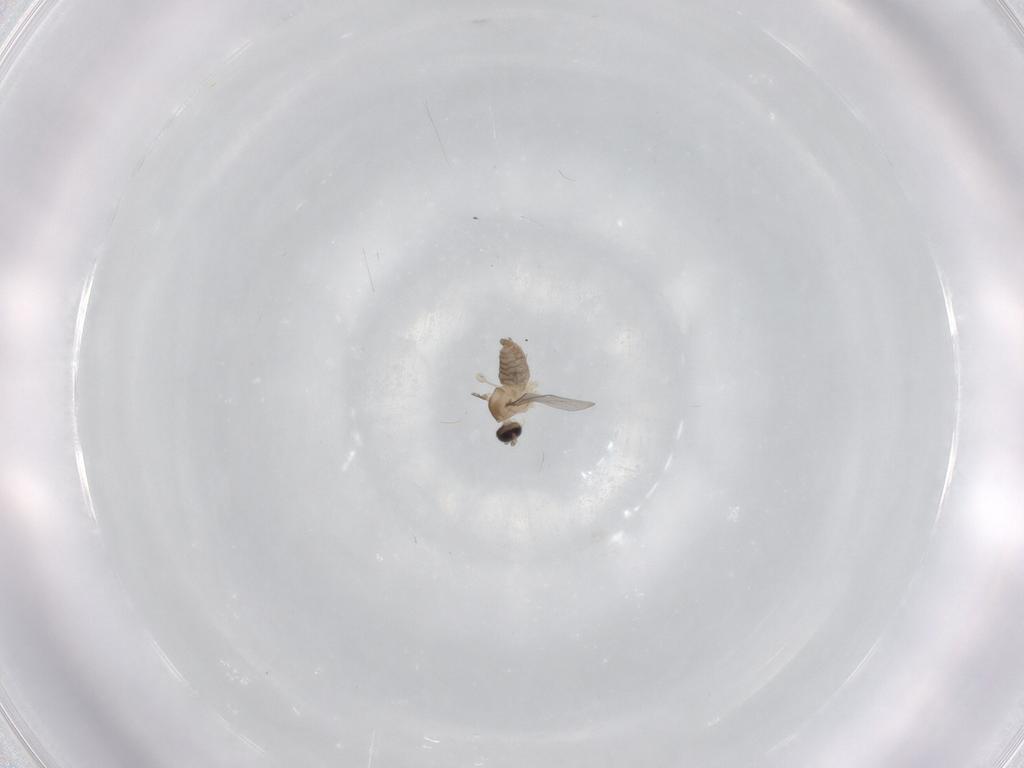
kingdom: Animalia
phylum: Arthropoda
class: Insecta
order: Diptera
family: Cecidomyiidae
